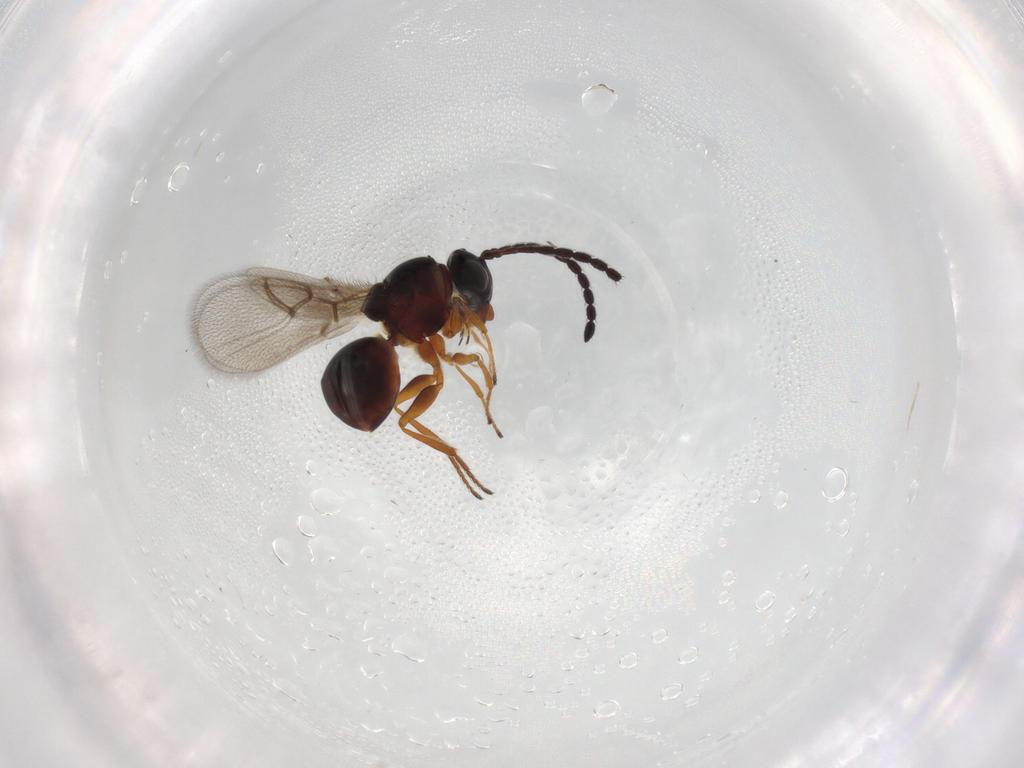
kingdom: Animalia
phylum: Arthropoda
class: Insecta
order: Hymenoptera
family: Figitidae
